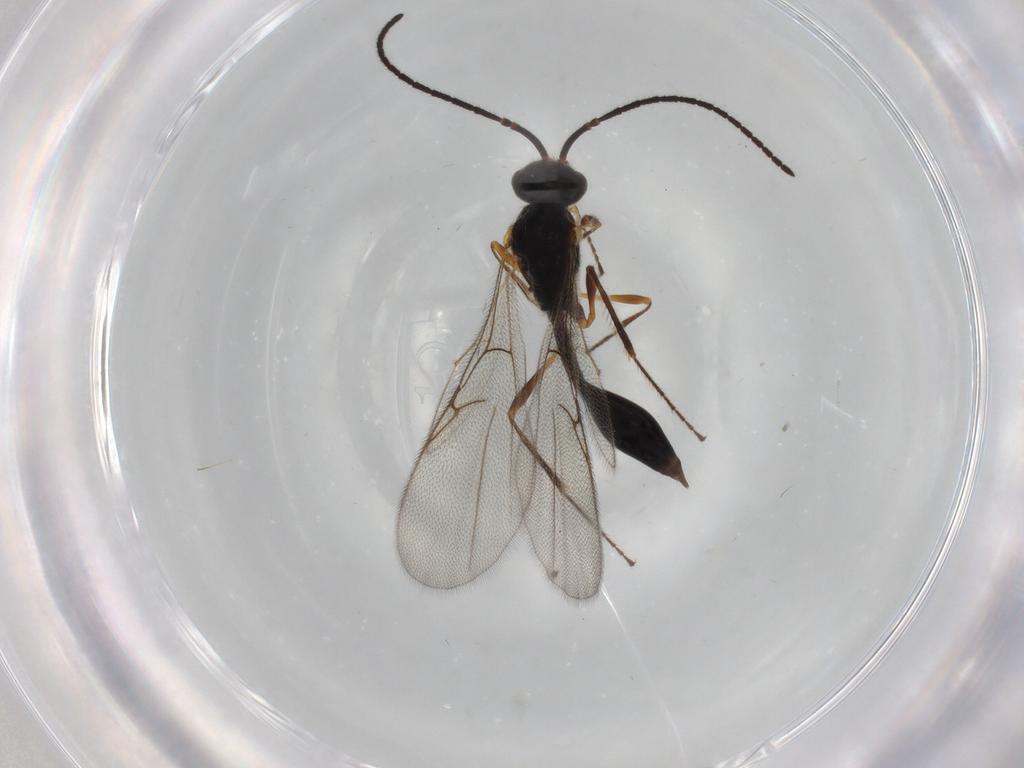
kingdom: Animalia
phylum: Arthropoda
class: Insecta
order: Hymenoptera
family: Diapriidae
